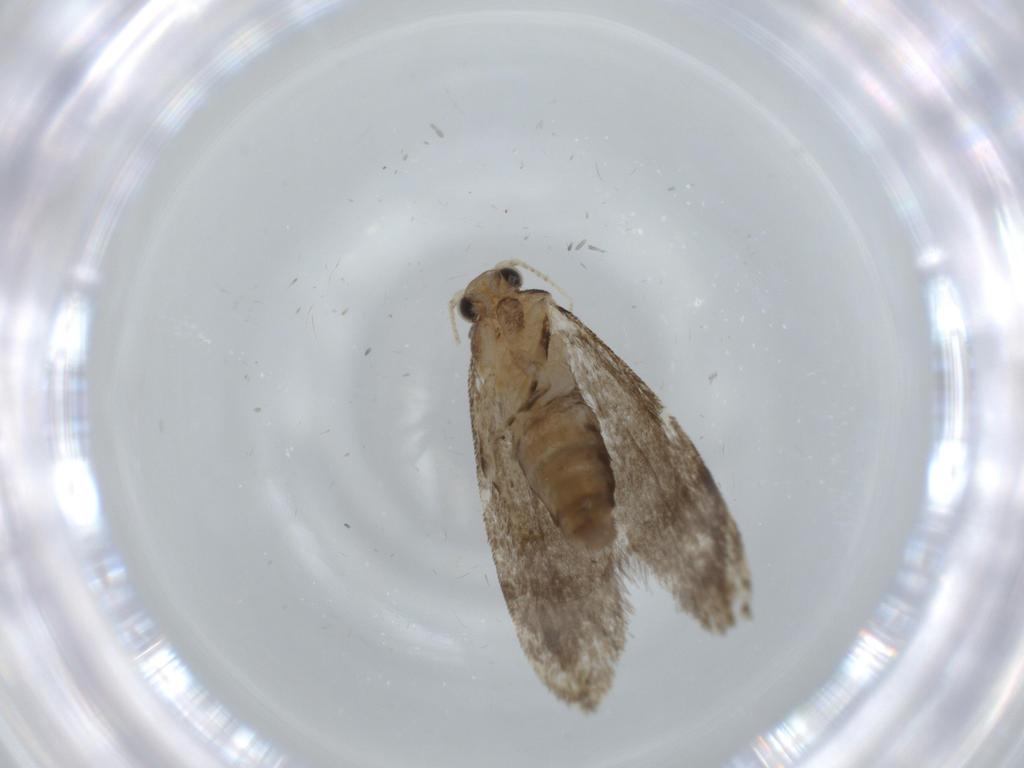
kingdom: Animalia
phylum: Arthropoda
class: Insecta
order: Lepidoptera
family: Tineidae
